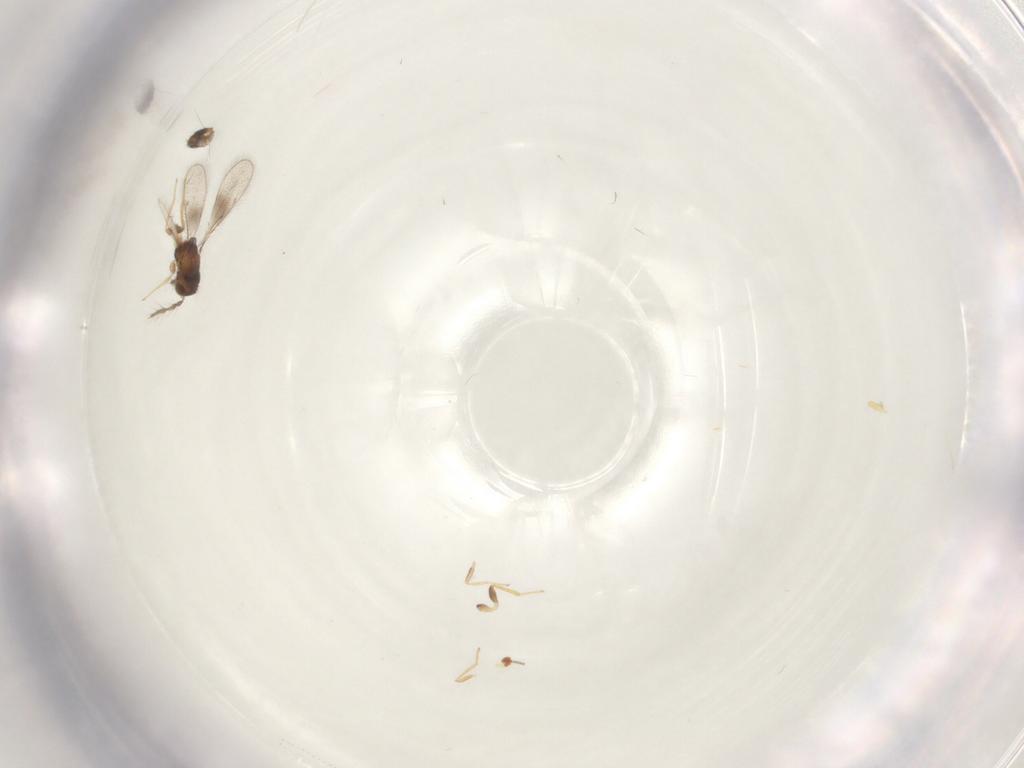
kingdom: Animalia
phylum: Arthropoda
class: Insecta
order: Hymenoptera
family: Scelionidae
